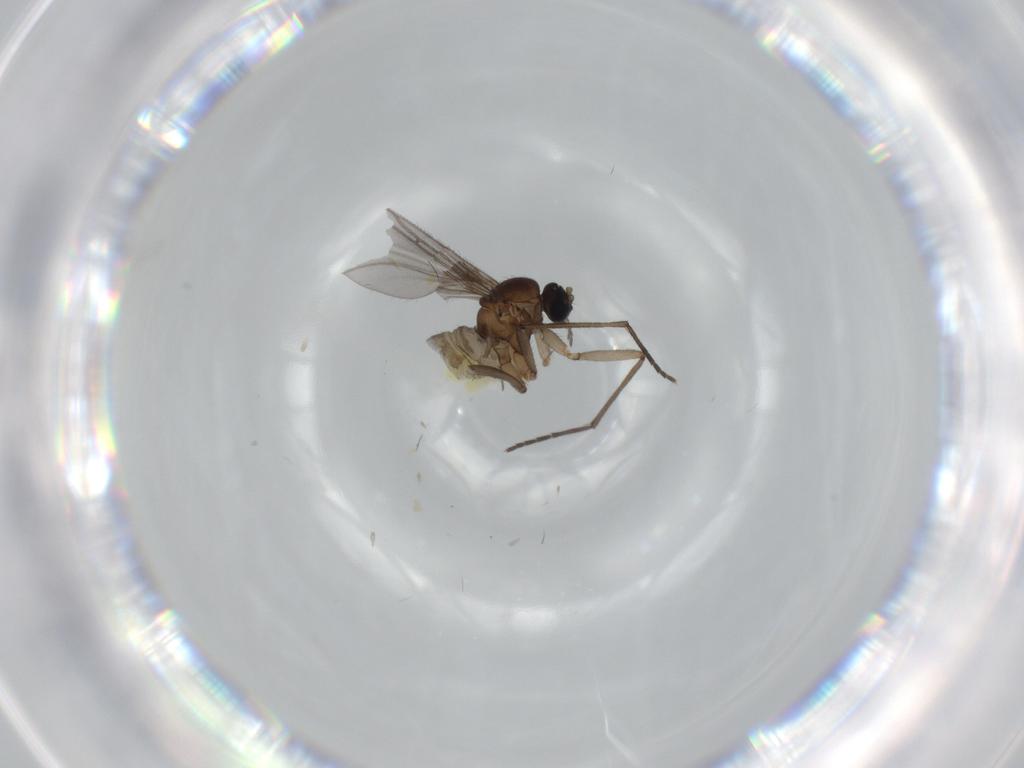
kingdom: Animalia
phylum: Arthropoda
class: Insecta
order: Diptera
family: Sciaridae
